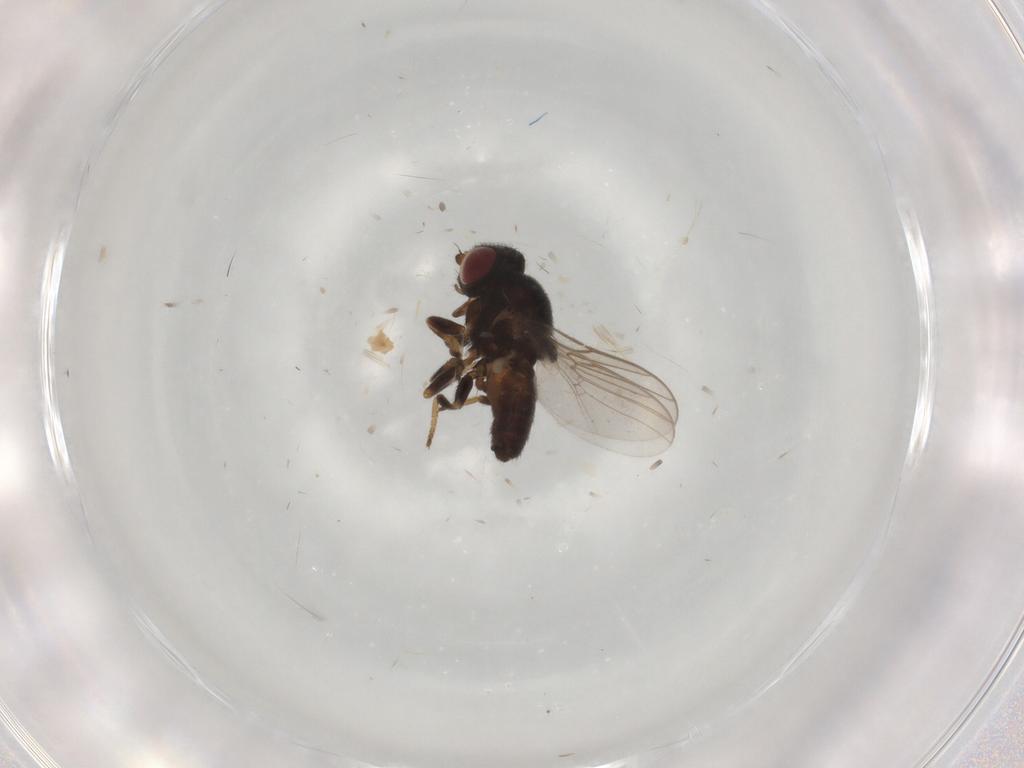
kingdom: Animalia
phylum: Arthropoda
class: Insecta
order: Diptera
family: Chloropidae
